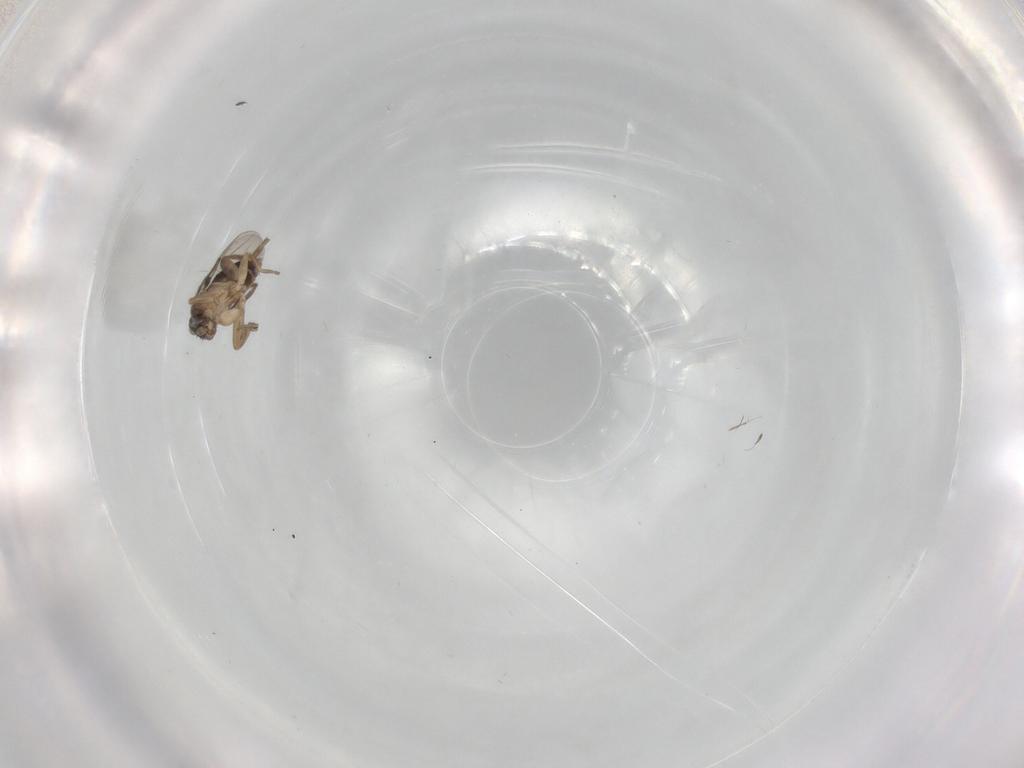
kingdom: Animalia
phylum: Arthropoda
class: Insecta
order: Diptera
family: Phoridae
